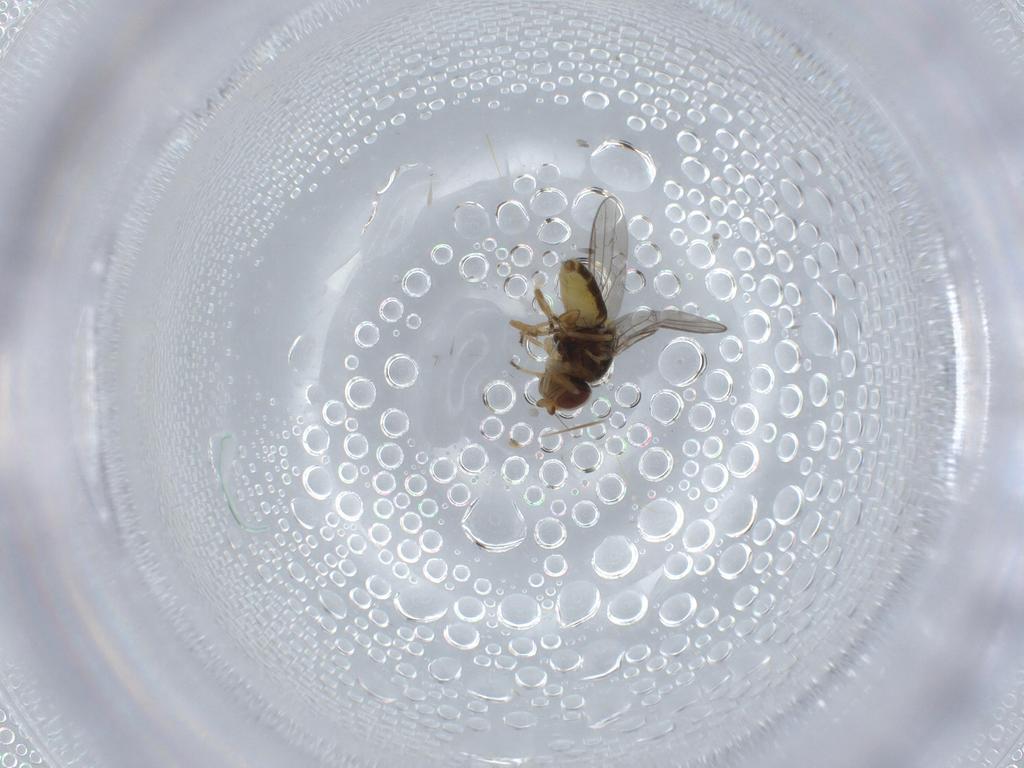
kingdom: Animalia
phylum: Arthropoda
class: Insecta
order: Diptera
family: Chloropidae
